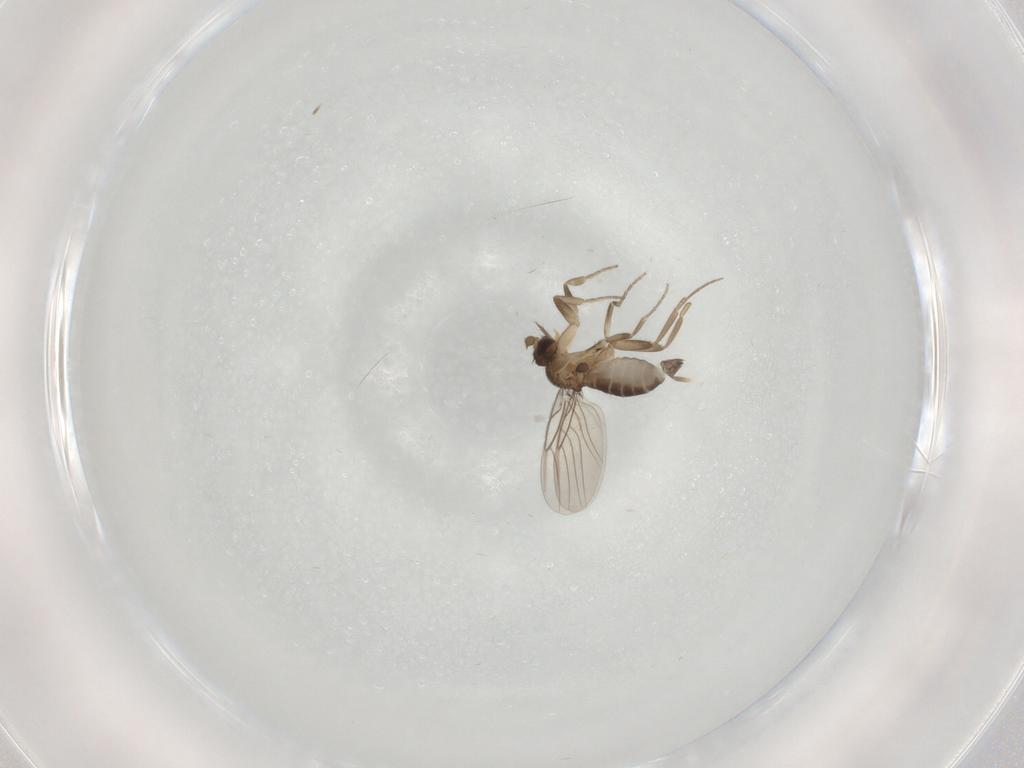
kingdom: Animalia
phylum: Arthropoda
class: Insecta
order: Diptera
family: Phoridae
